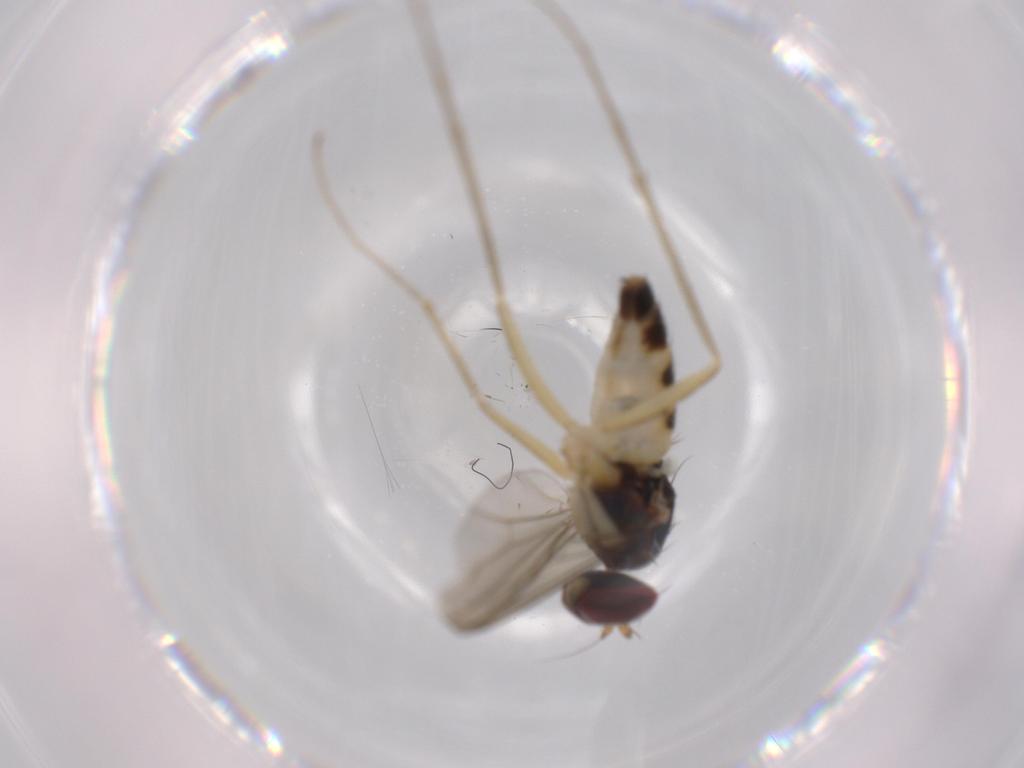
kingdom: Animalia
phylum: Arthropoda
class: Insecta
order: Diptera
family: Dolichopodidae
